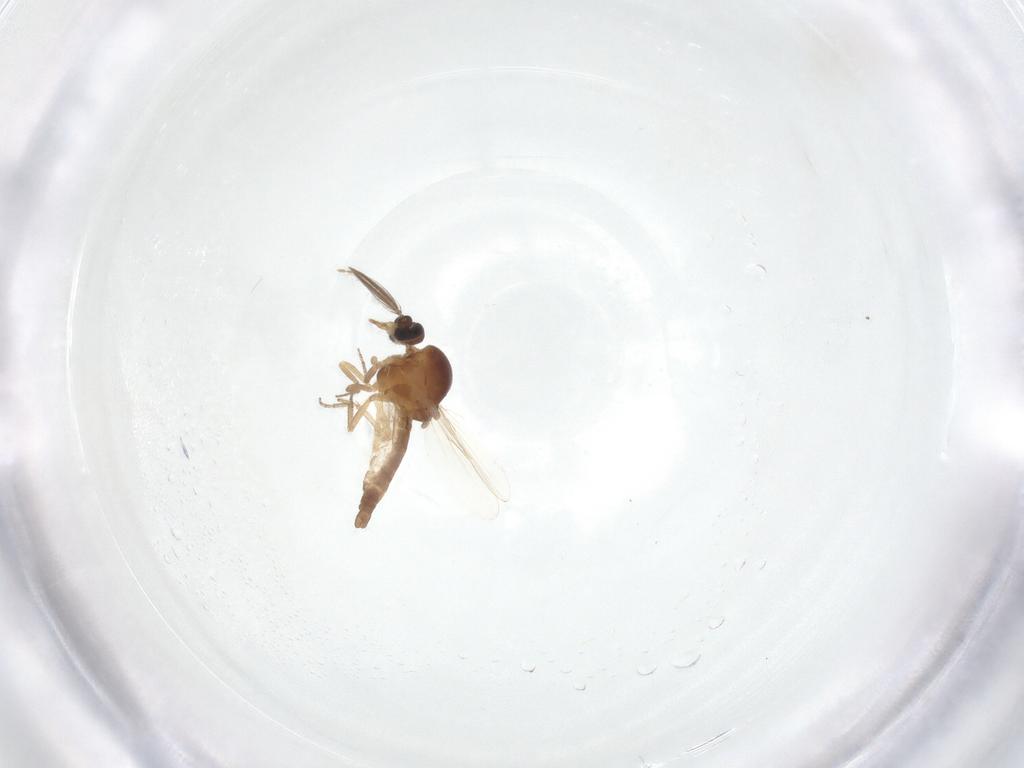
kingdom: Animalia
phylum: Arthropoda
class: Insecta
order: Diptera
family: Ceratopogonidae
